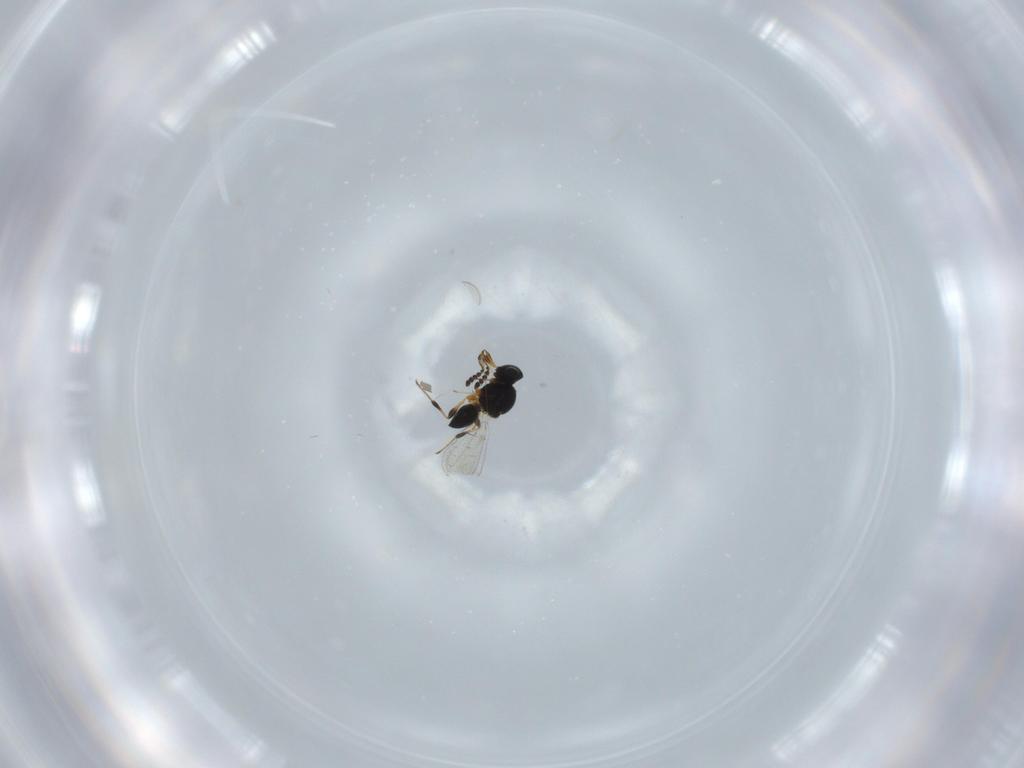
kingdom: Animalia
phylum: Arthropoda
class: Insecta
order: Hymenoptera
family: Platygastridae
